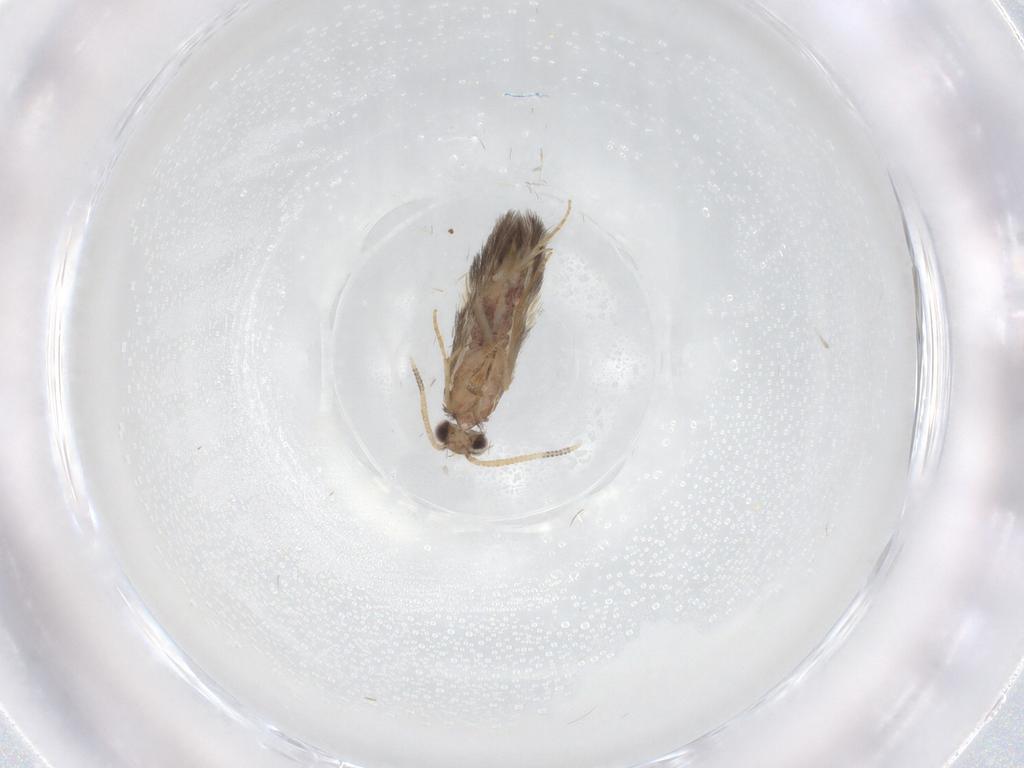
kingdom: Animalia
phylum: Arthropoda
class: Insecta
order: Trichoptera
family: Hydroptilidae
